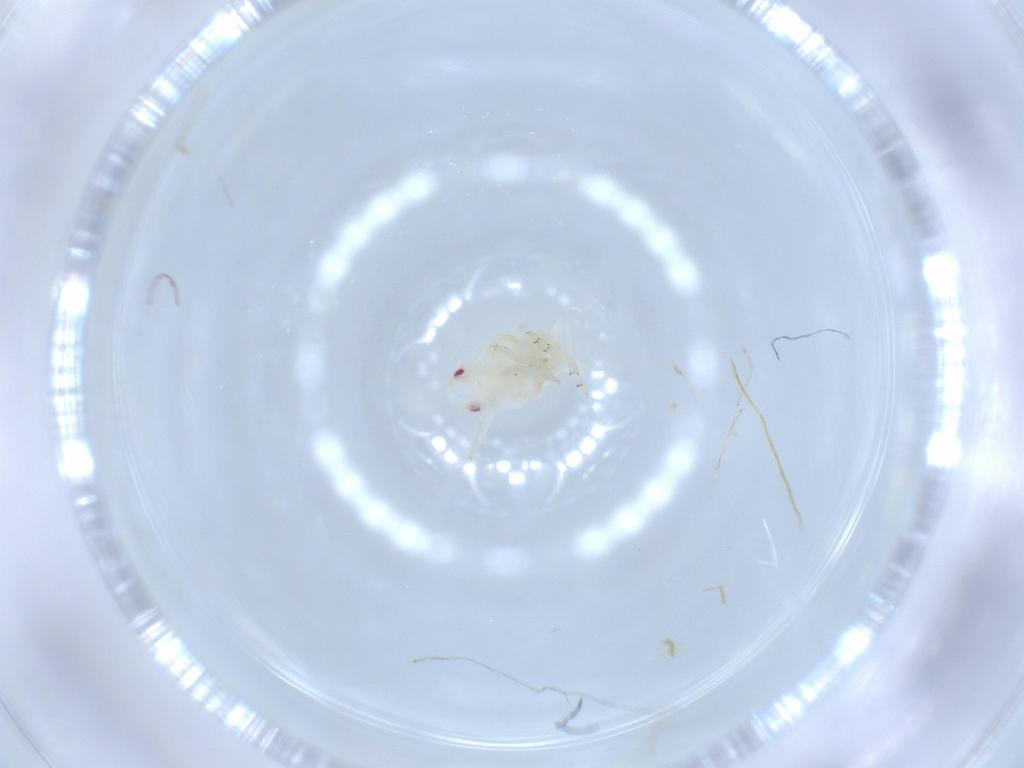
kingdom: Animalia
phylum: Arthropoda
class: Insecta
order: Hemiptera
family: Flatidae
